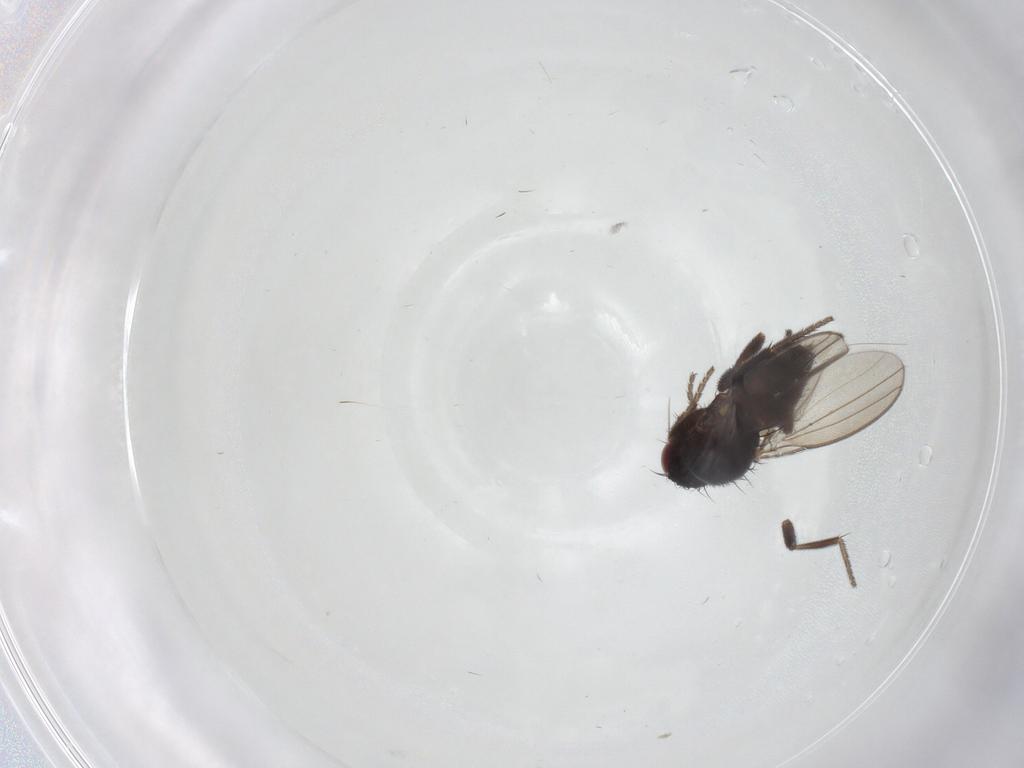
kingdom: Animalia
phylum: Arthropoda
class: Insecta
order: Diptera
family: Milichiidae
